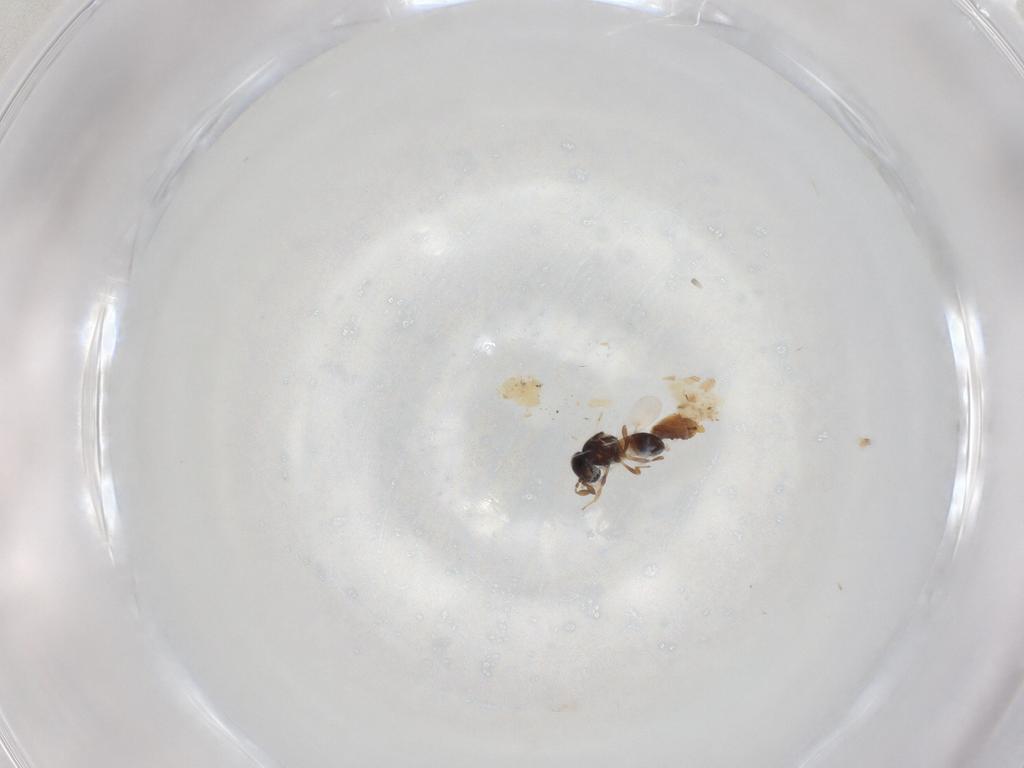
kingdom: Animalia
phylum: Arthropoda
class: Insecta
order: Hymenoptera
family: Scelionidae
